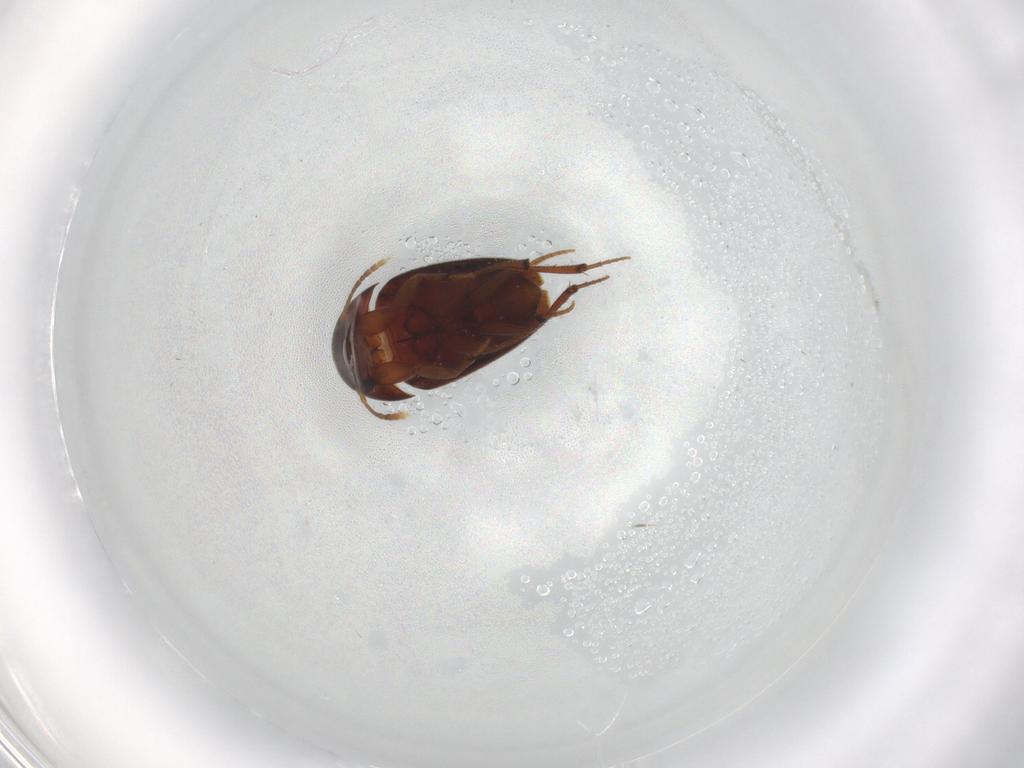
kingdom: Animalia
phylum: Arthropoda
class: Insecta
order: Coleoptera
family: Leiodidae
